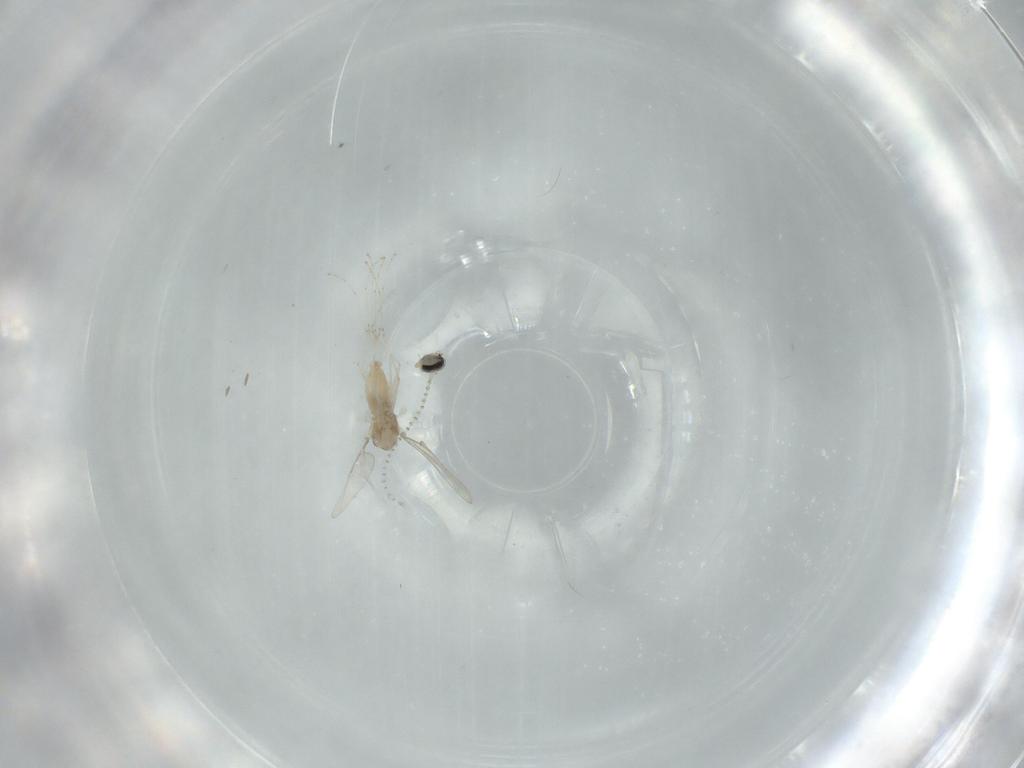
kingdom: Animalia
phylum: Arthropoda
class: Insecta
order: Diptera
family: Cecidomyiidae
